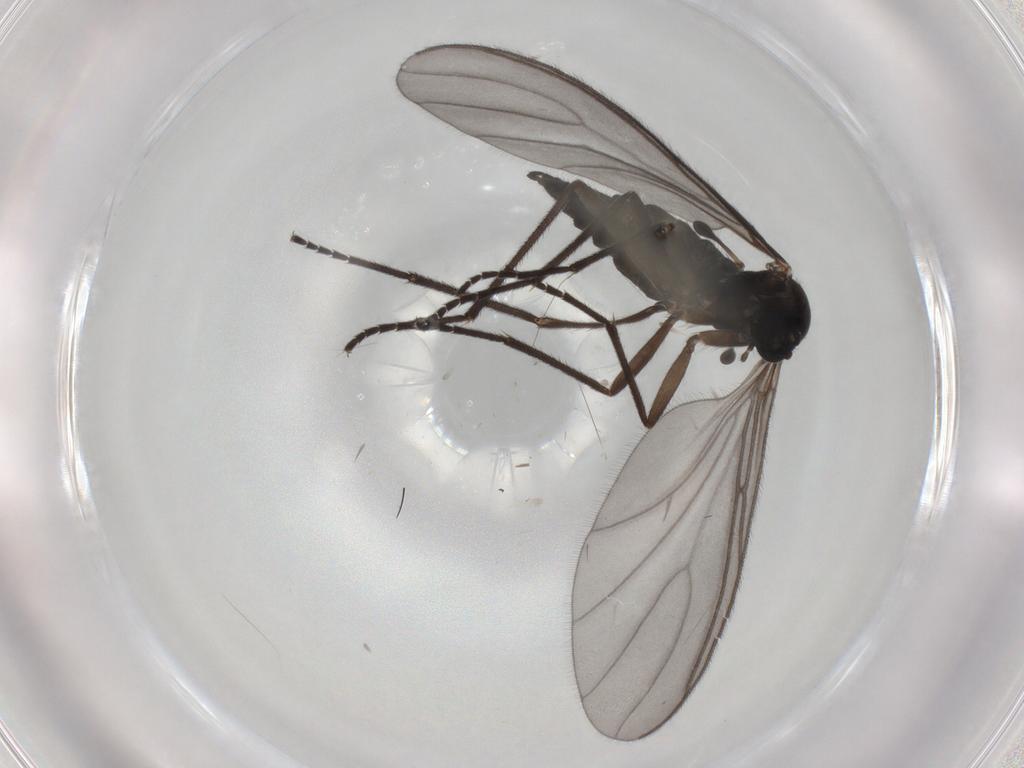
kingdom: Animalia
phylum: Arthropoda
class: Insecta
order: Diptera
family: Sciaridae
